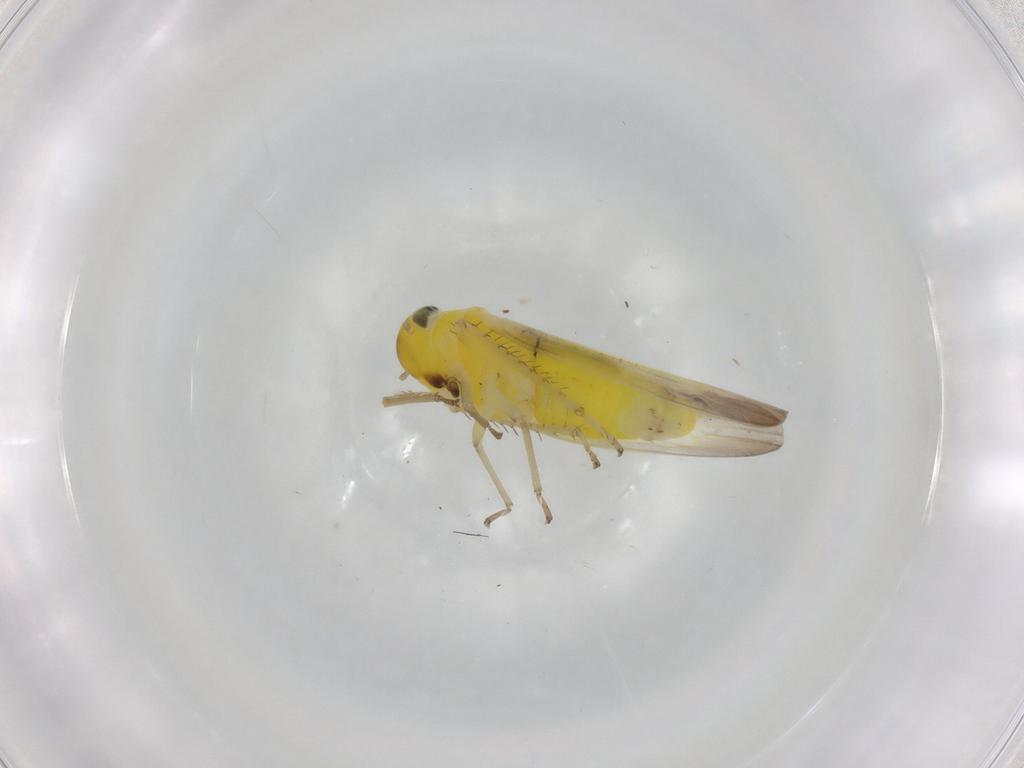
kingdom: Animalia
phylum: Arthropoda
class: Insecta
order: Hemiptera
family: Cicadellidae
